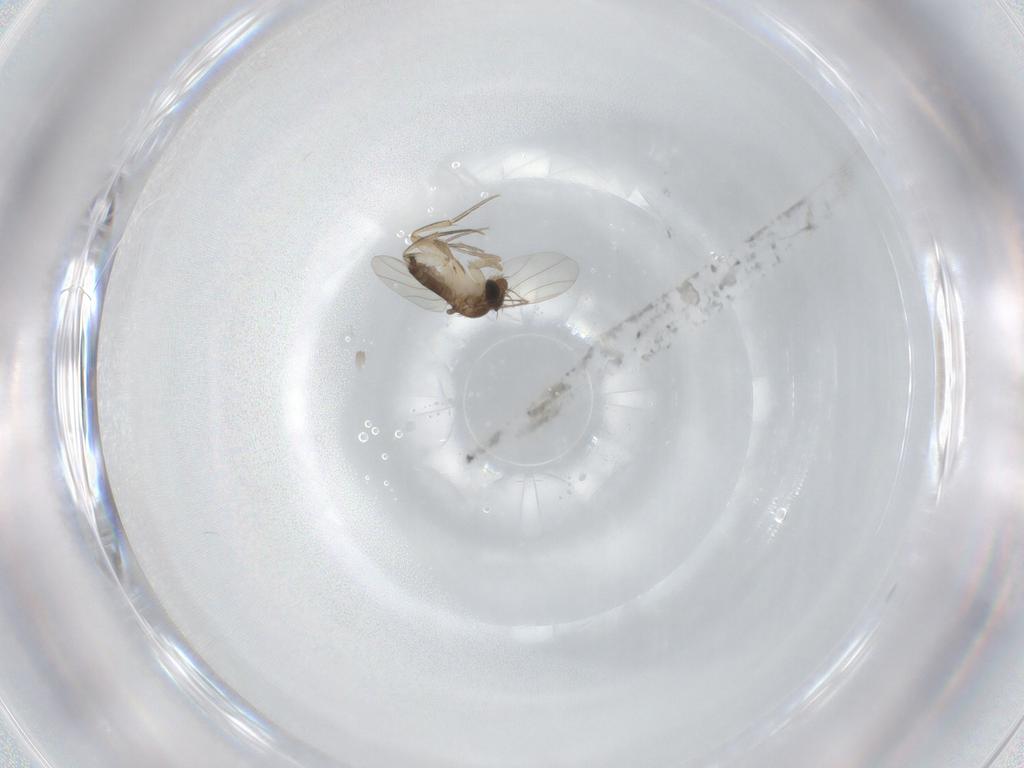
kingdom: Animalia
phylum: Arthropoda
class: Insecta
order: Diptera
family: Phoridae
